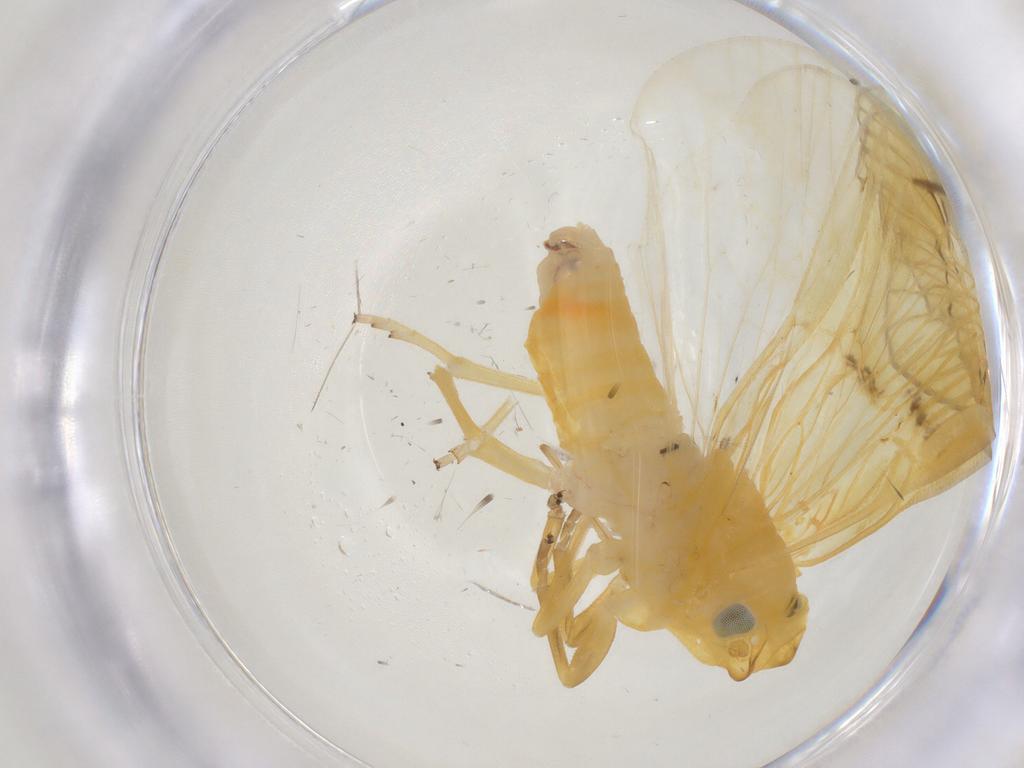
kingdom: Animalia
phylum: Arthropoda
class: Insecta
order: Hemiptera
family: Cixiidae
